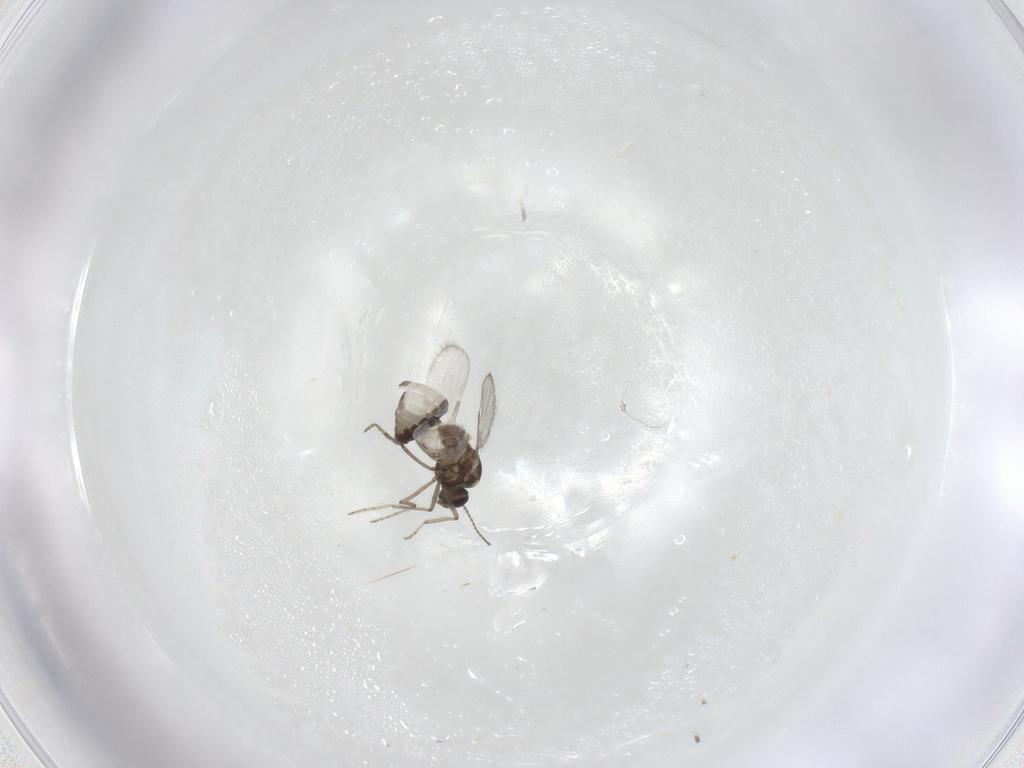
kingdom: Animalia
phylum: Arthropoda
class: Insecta
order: Diptera
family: Ceratopogonidae
